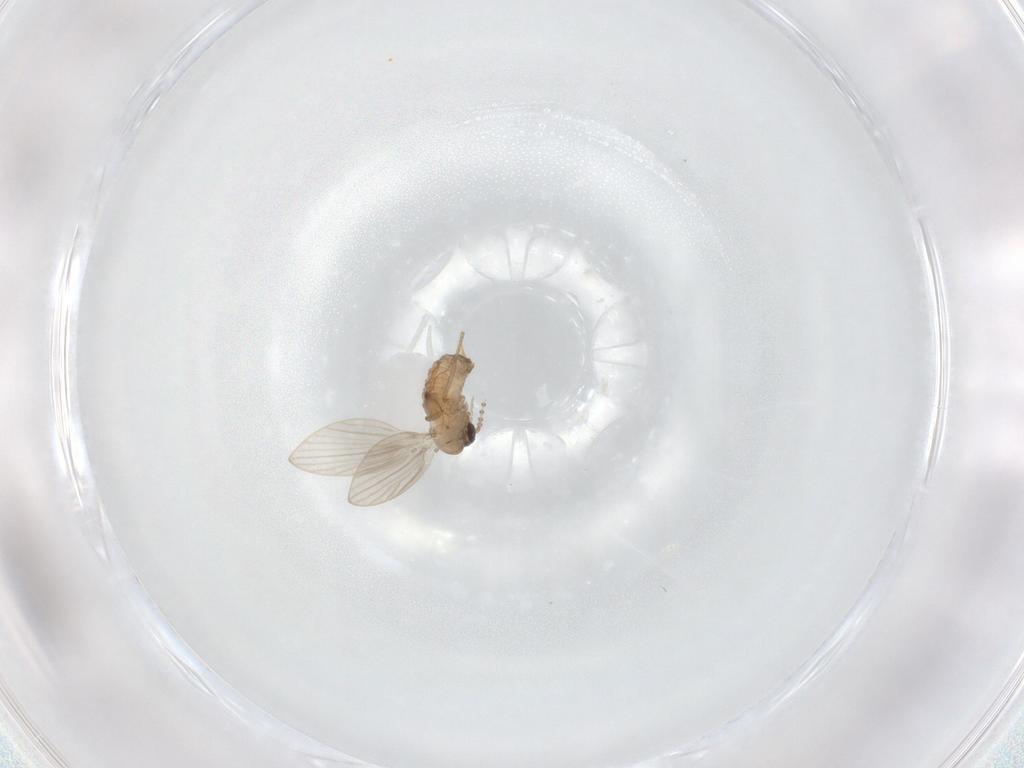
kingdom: Animalia
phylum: Arthropoda
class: Insecta
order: Diptera
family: Psychodidae
